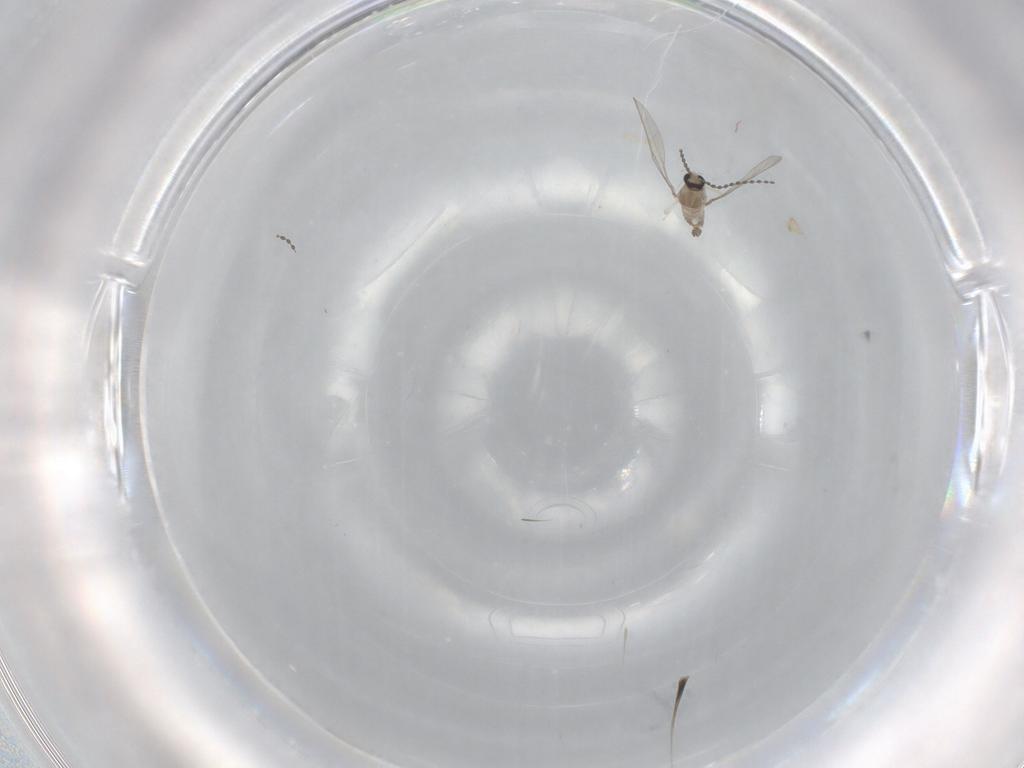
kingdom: Animalia
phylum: Arthropoda
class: Insecta
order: Diptera
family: Cecidomyiidae
